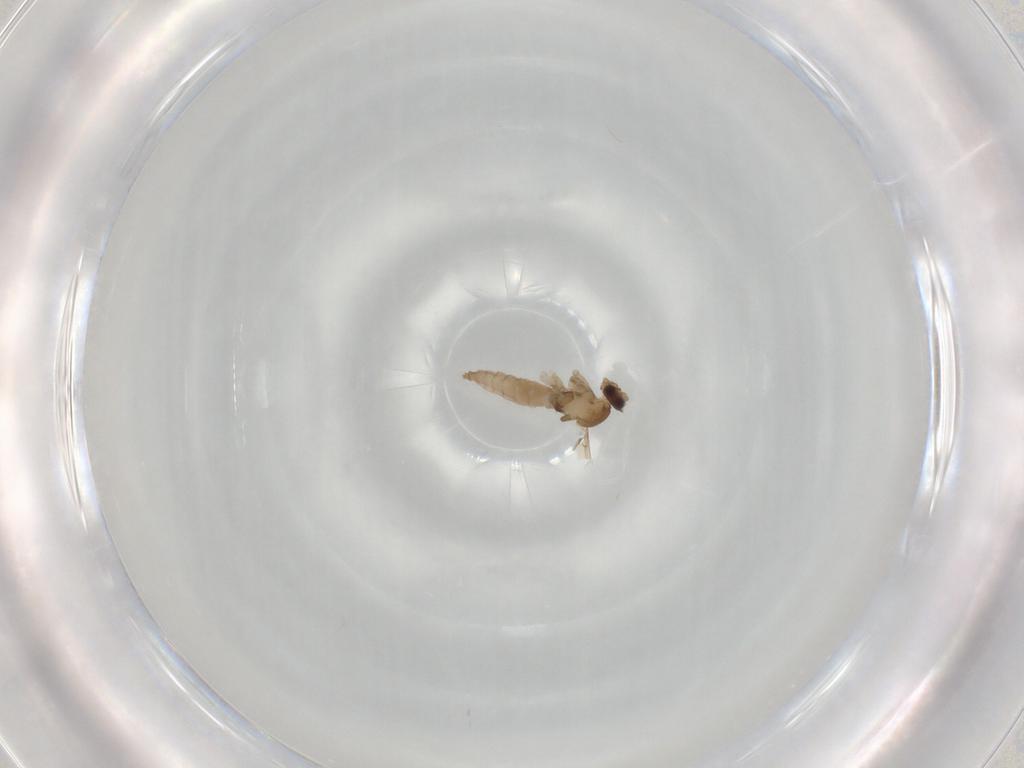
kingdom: Animalia
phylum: Arthropoda
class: Insecta
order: Diptera
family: Cecidomyiidae
